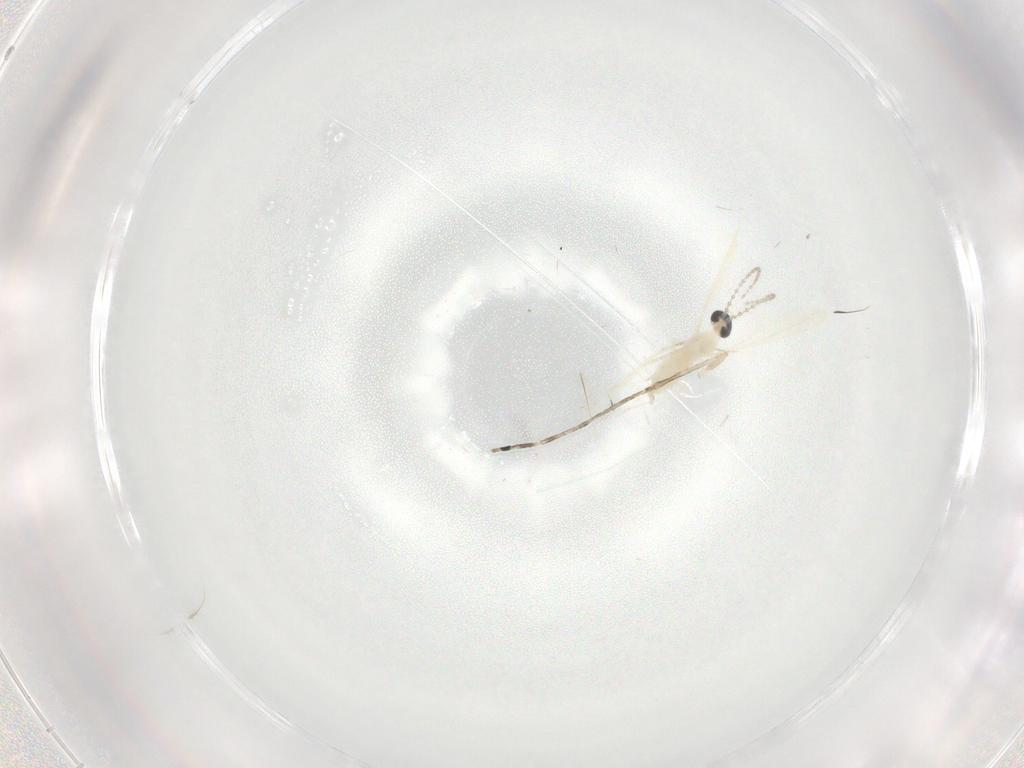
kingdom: Animalia
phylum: Arthropoda
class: Insecta
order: Diptera
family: Cecidomyiidae
